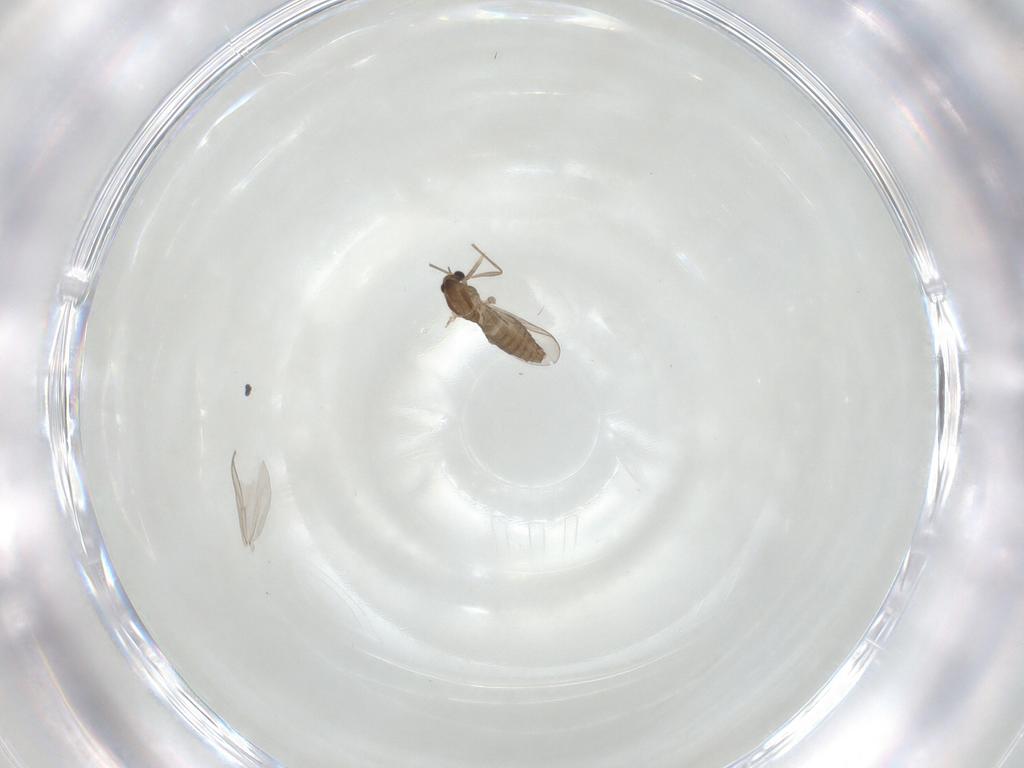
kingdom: Animalia
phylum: Arthropoda
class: Insecta
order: Diptera
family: Chironomidae
